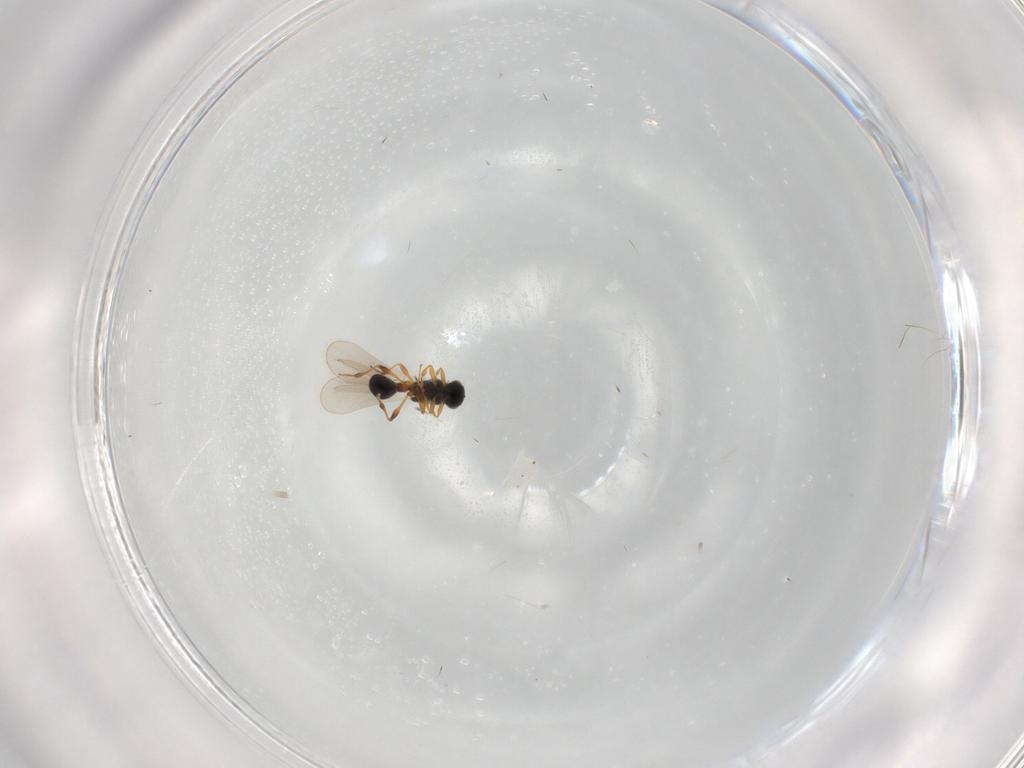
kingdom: Animalia
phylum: Arthropoda
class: Insecta
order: Hymenoptera
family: Platygastridae
